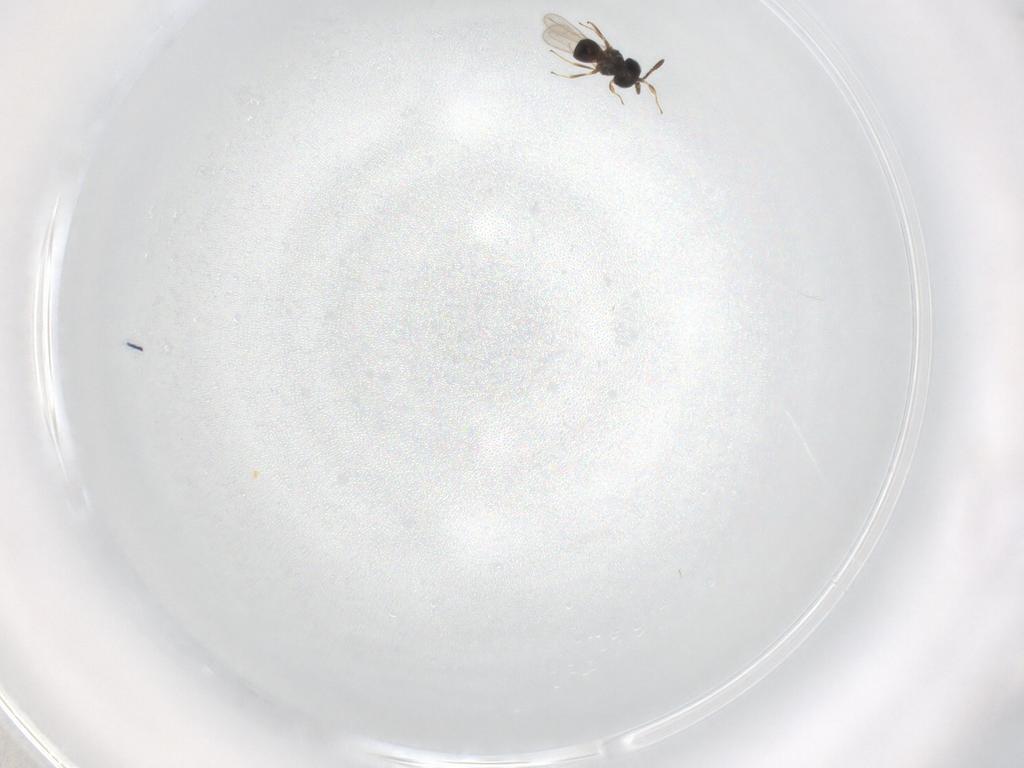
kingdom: Animalia
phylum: Arthropoda
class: Insecta
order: Hymenoptera
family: Scelionidae
